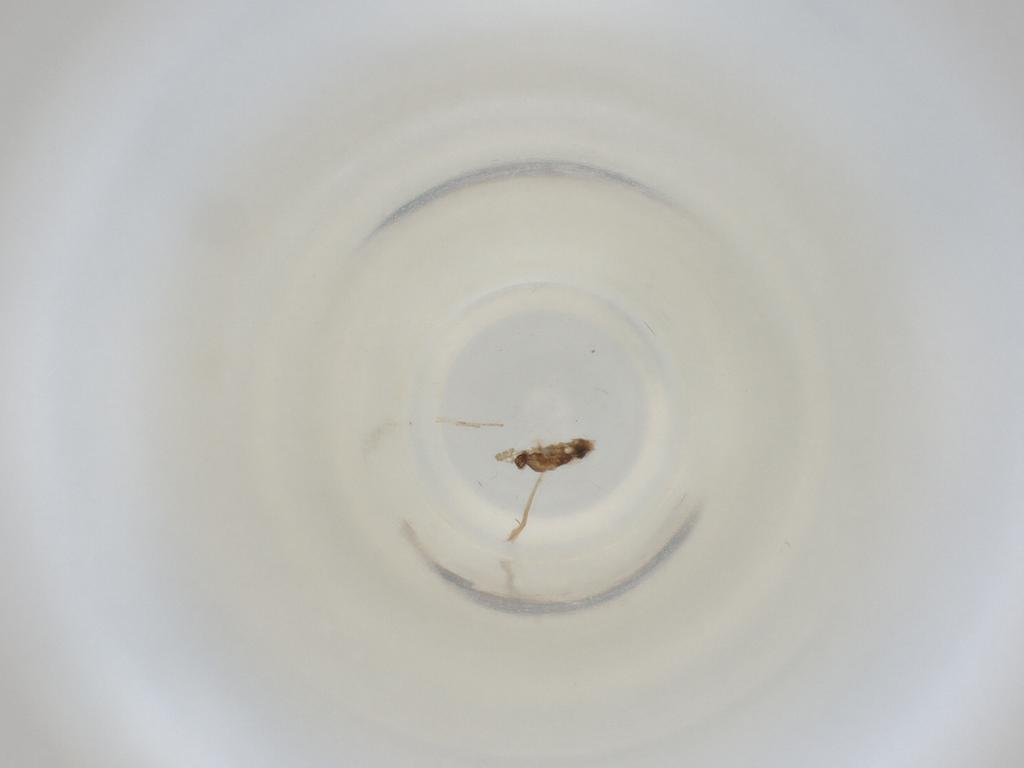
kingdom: Animalia
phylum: Arthropoda
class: Insecta
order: Diptera
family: Cecidomyiidae
